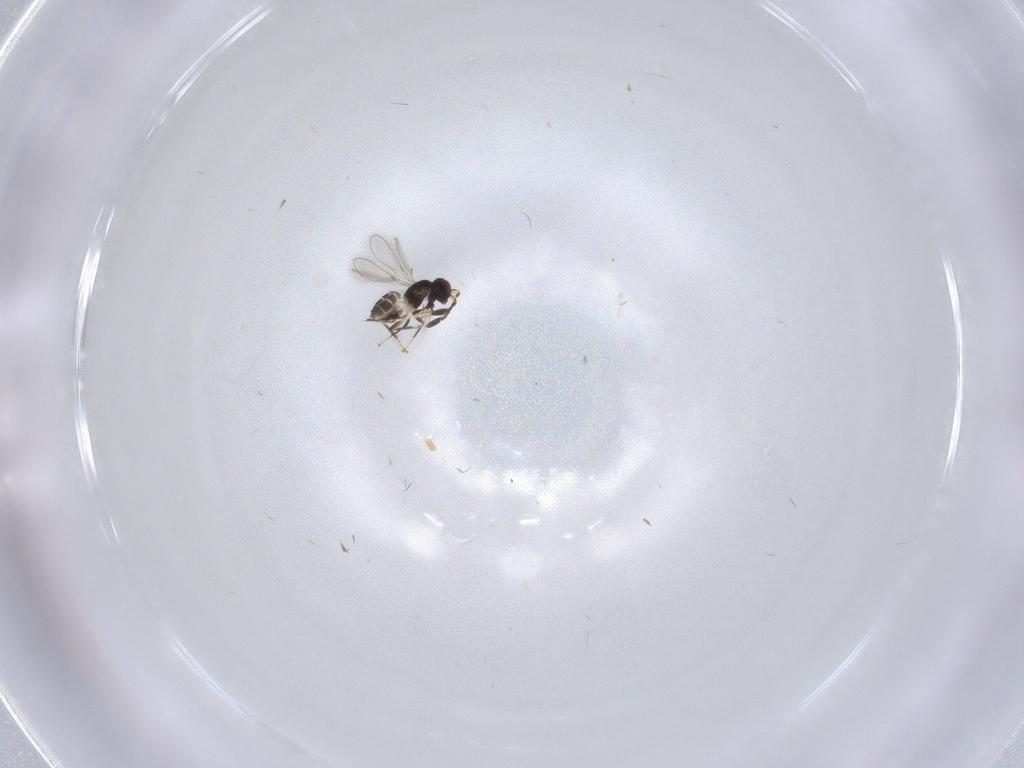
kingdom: Animalia
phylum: Arthropoda
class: Insecta
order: Hymenoptera
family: Mymaridae
